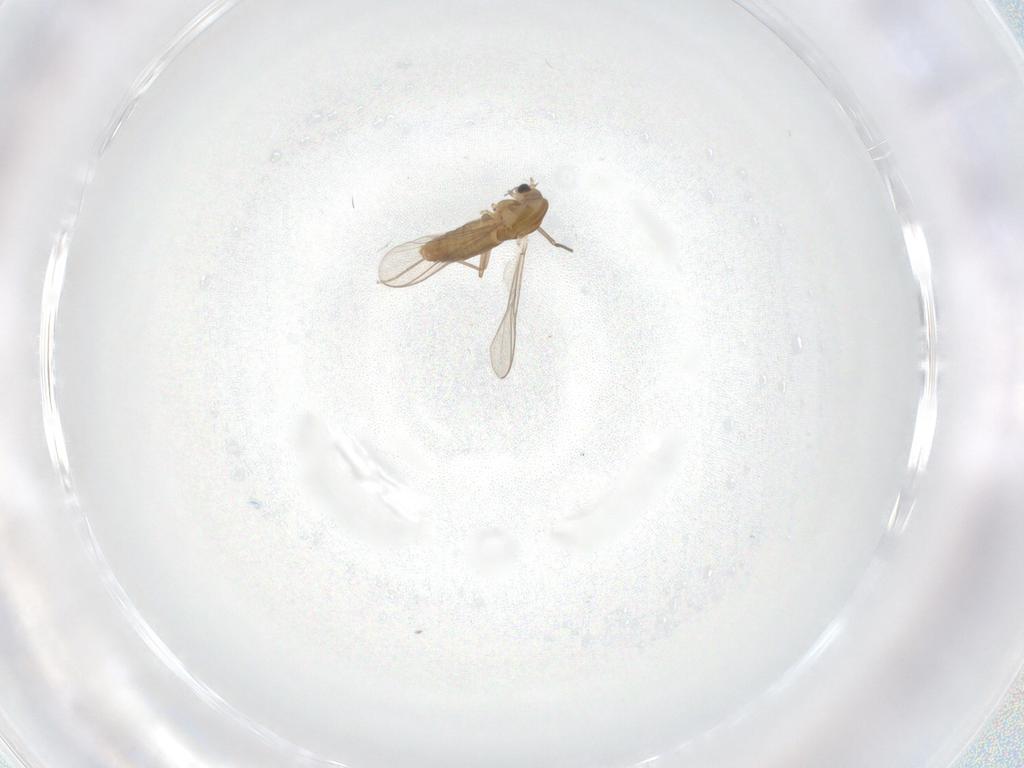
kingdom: Animalia
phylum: Arthropoda
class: Insecta
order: Diptera
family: Chironomidae
